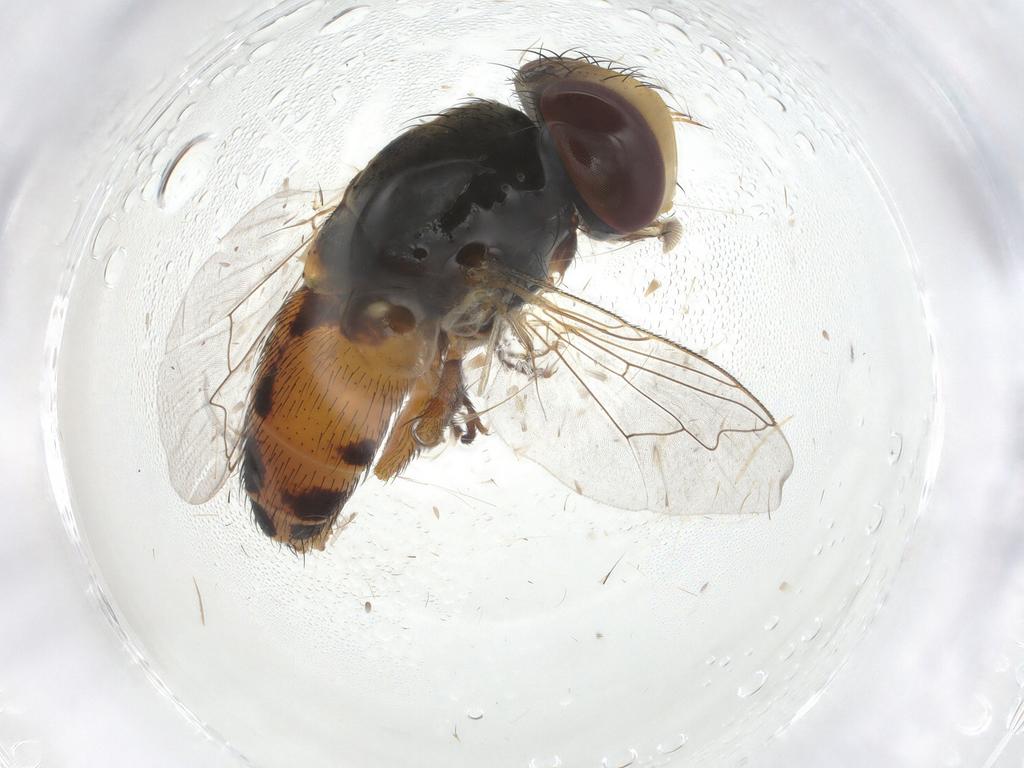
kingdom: Animalia
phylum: Arthropoda
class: Insecta
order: Diptera
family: Sarcophagidae
